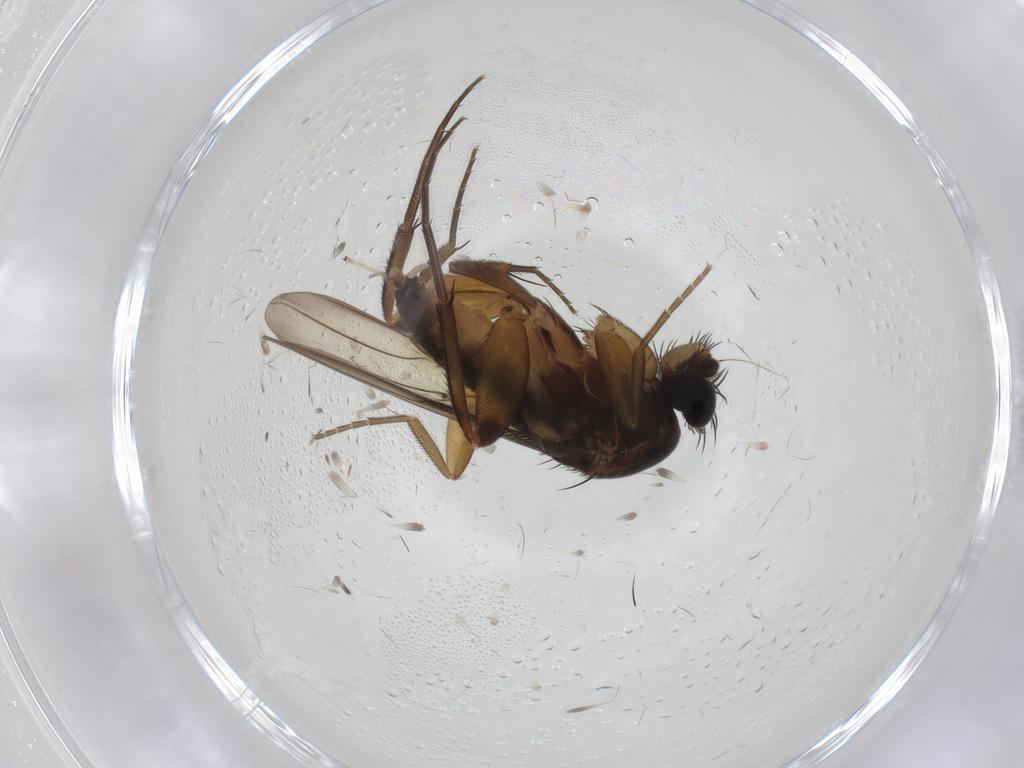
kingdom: Animalia
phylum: Arthropoda
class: Insecta
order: Diptera
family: Phoridae
